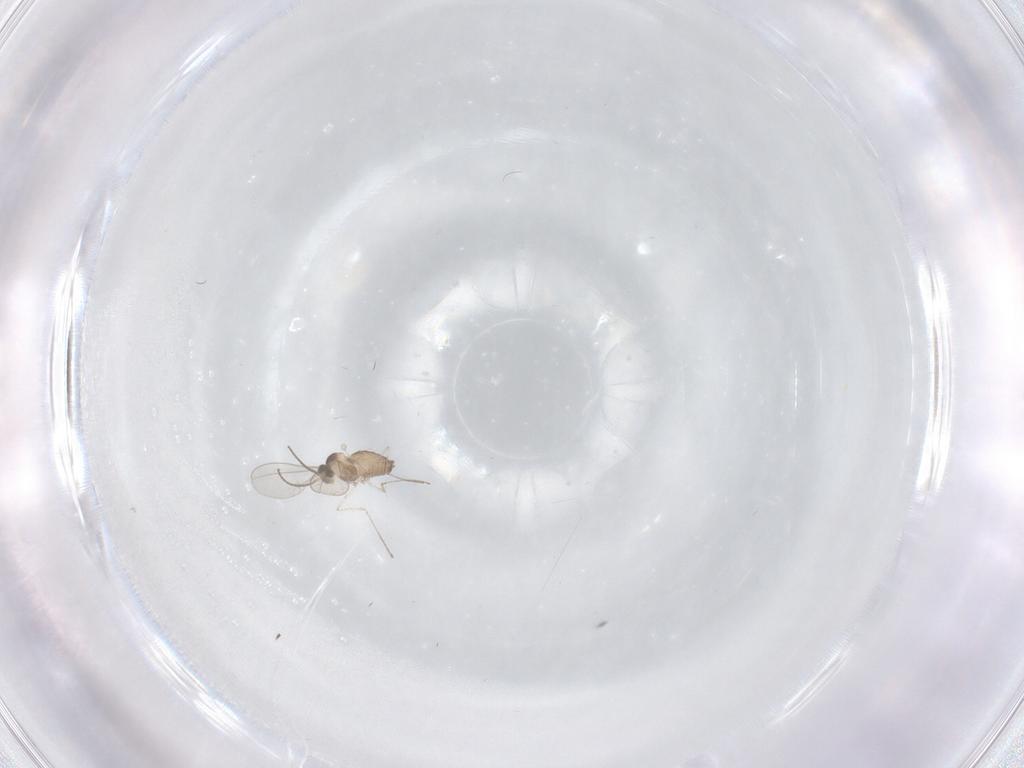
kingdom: Animalia
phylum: Arthropoda
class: Insecta
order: Diptera
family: Cecidomyiidae
